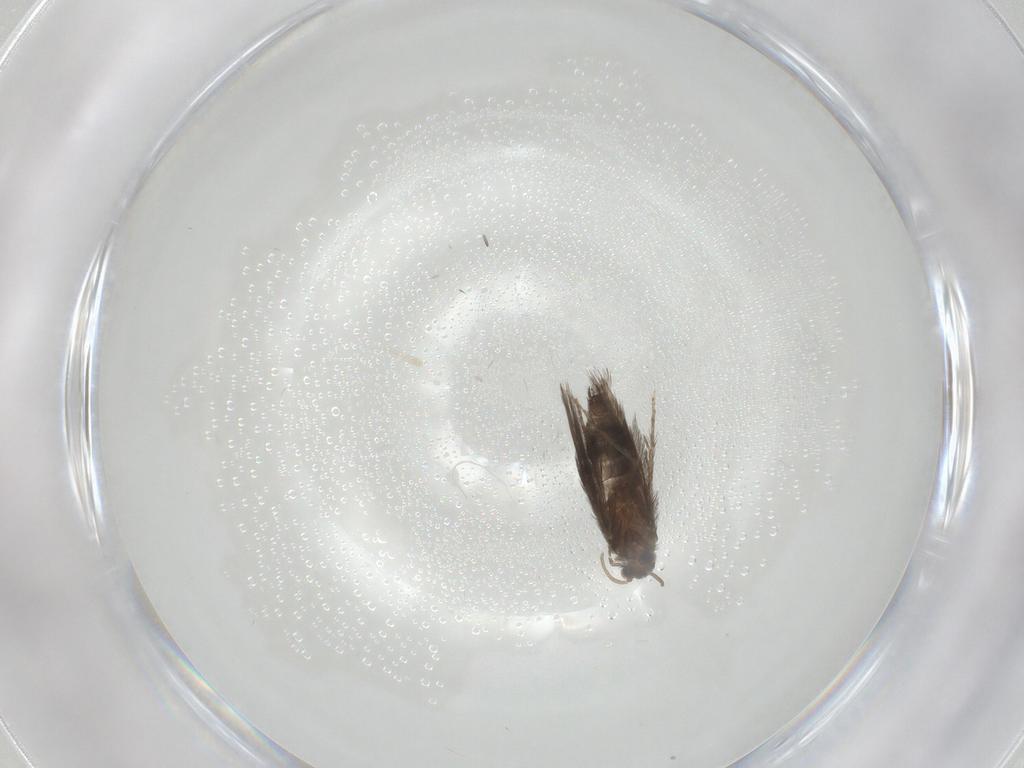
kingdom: Animalia
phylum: Arthropoda
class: Insecta
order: Trichoptera
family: Hydroptilidae
